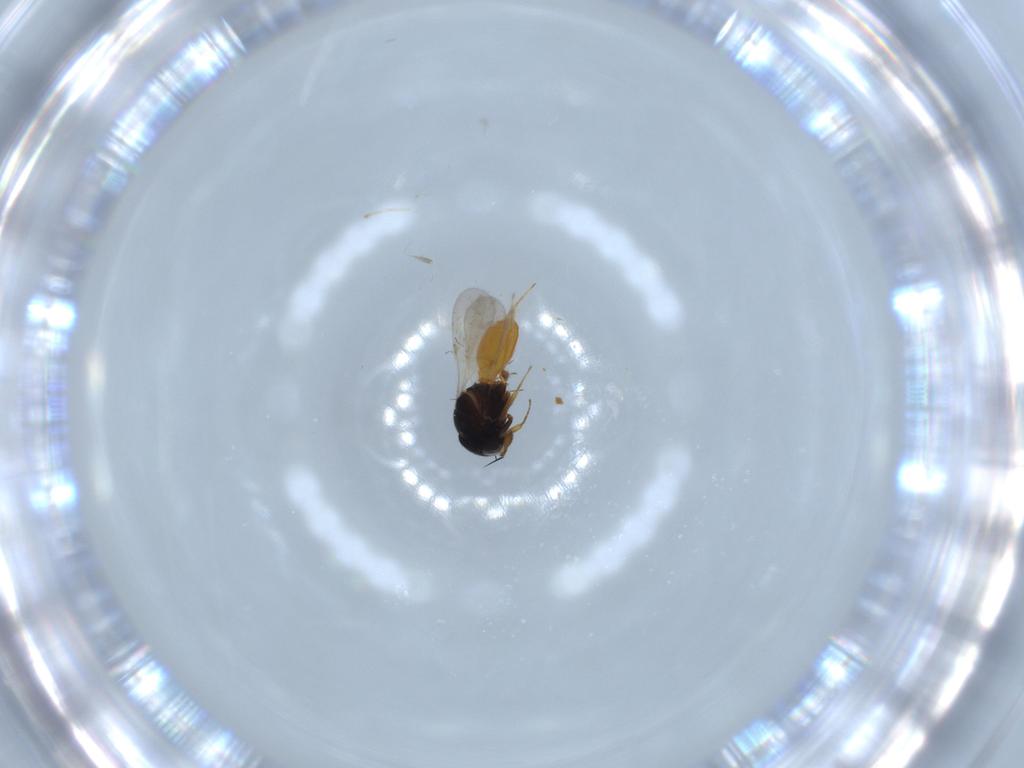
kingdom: Animalia
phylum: Arthropoda
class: Insecta
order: Hymenoptera
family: Scelionidae
